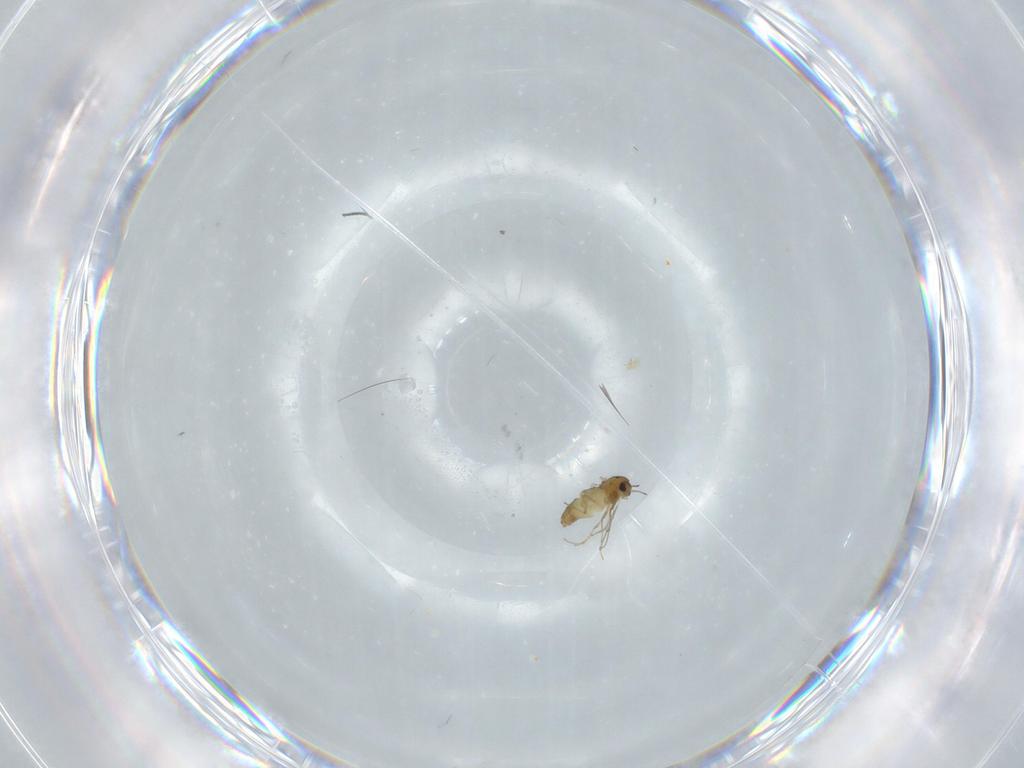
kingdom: Animalia
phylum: Arthropoda
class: Insecta
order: Diptera
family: Chironomidae
